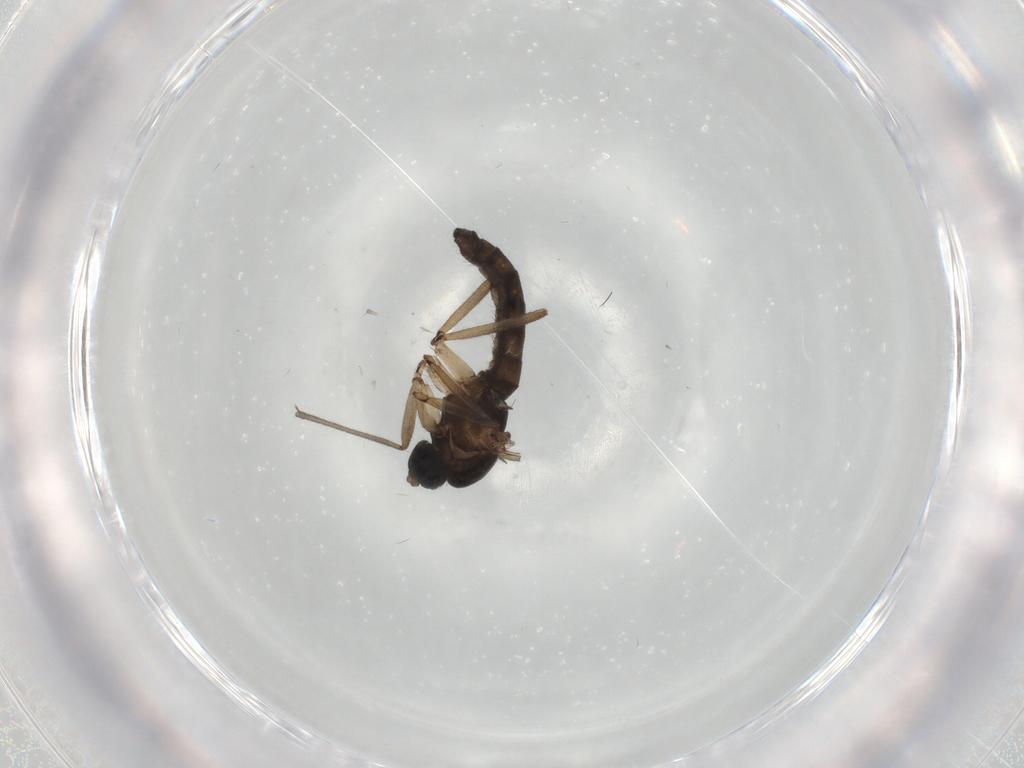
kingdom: Animalia
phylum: Arthropoda
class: Insecta
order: Diptera
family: Sciaridae
